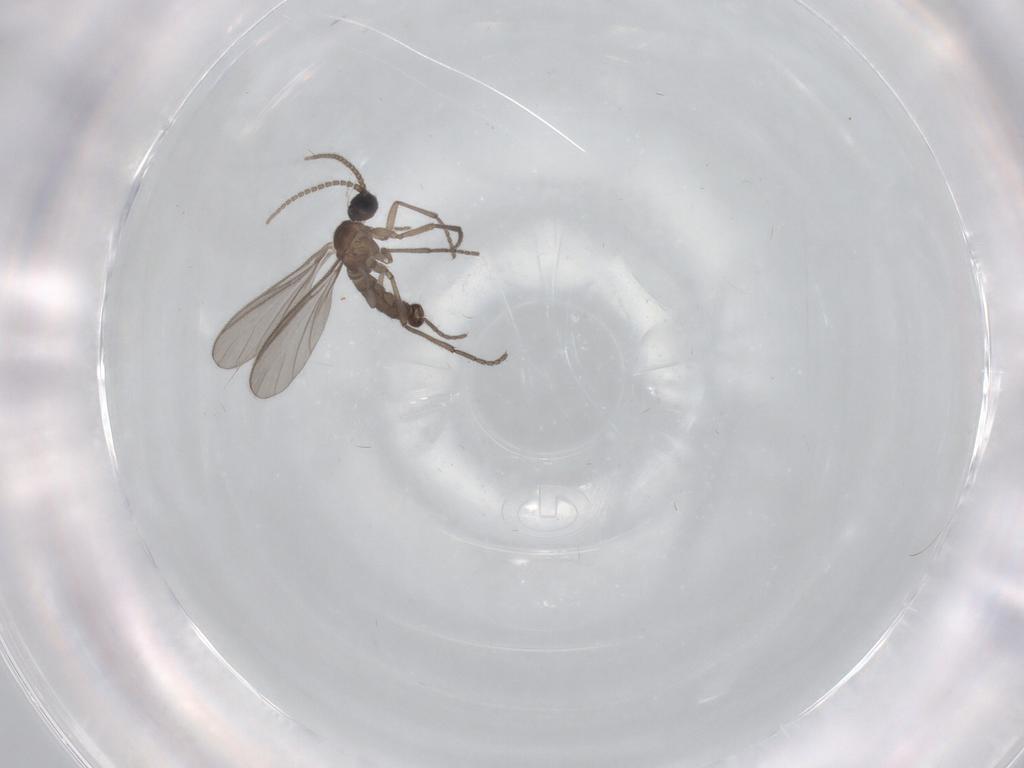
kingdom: Animalia
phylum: Arthropoda
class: Insecta
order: Diptera
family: Sciaridae
